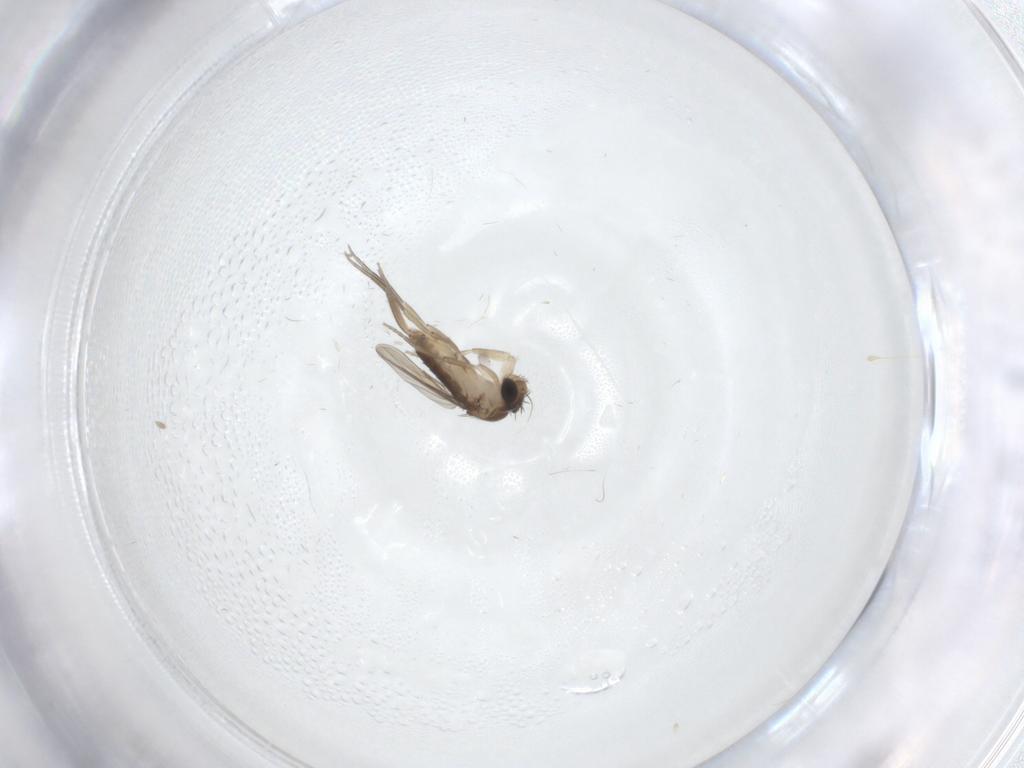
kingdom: Animalia
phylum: Arthropoda
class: Insecta
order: Diptera
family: Phoridae
